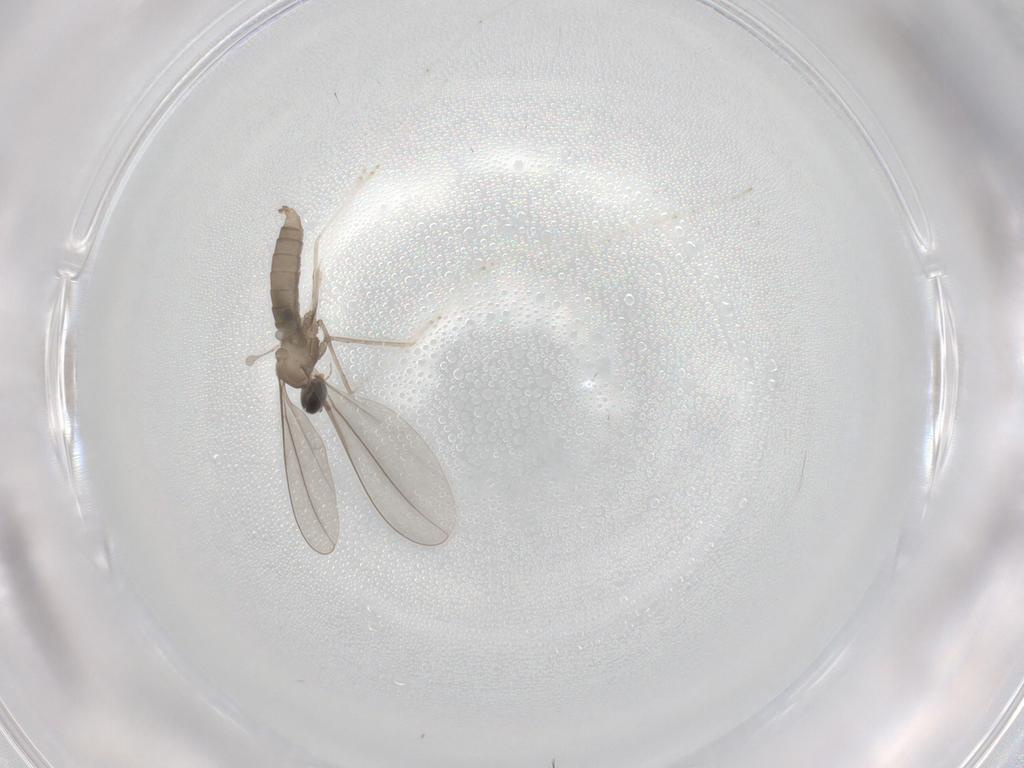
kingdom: Animalia
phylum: Arthropoda
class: Insecta
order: Diptera
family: Cecidomyiidae
